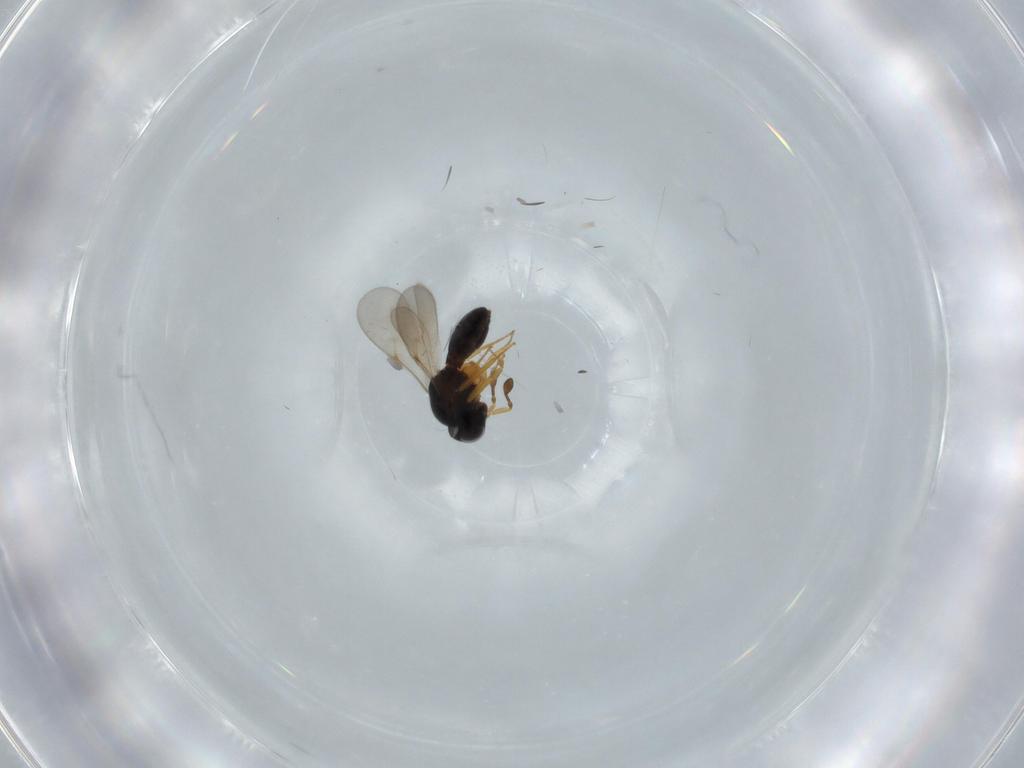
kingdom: Animalia
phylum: Arthropoda
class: Insecta
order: Hymenoptera
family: Scelionidae
